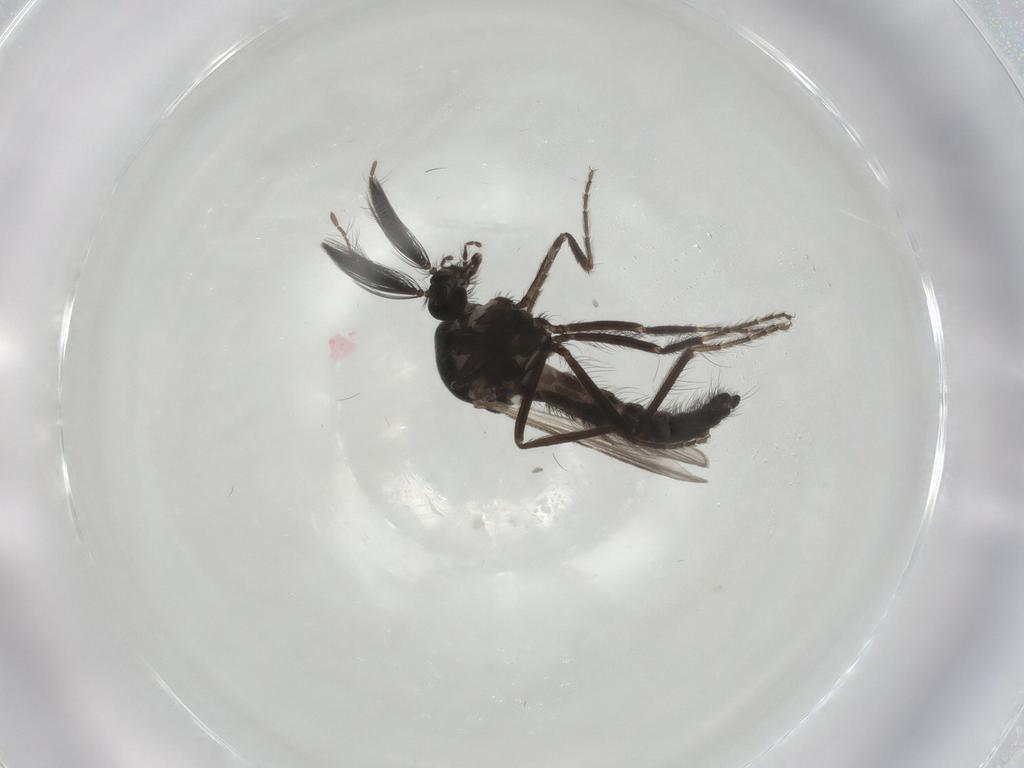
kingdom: Animalia
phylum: Arthropoda
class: Insecta
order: Diptera
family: Ceratopogonidae
